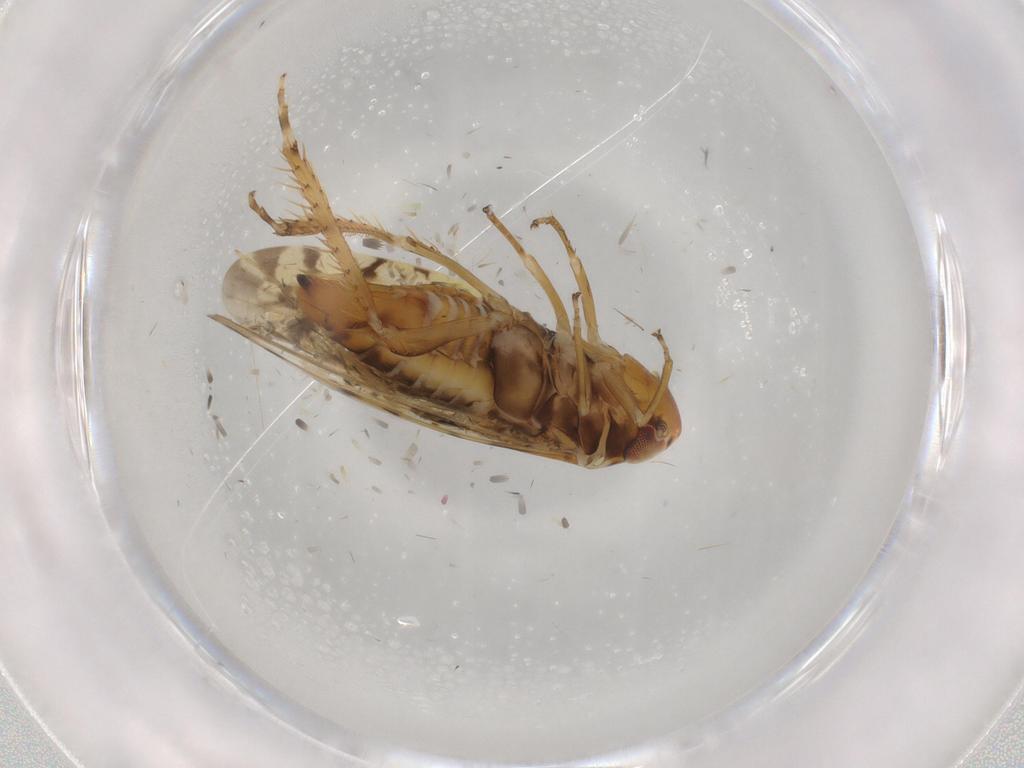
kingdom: Animalia
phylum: Arthropoda
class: Insecta
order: Hemiptera
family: Cicadellidae
